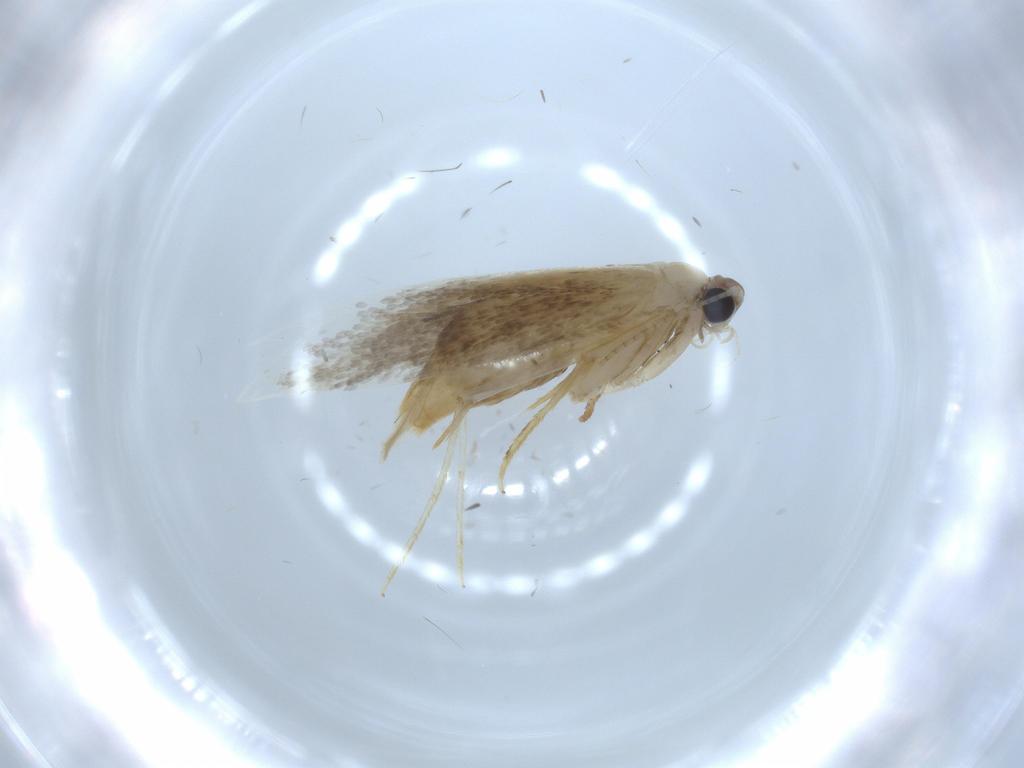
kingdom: Animalia
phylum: Arthropoda
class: Insecta
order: Lepidoptera
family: Tineidae
